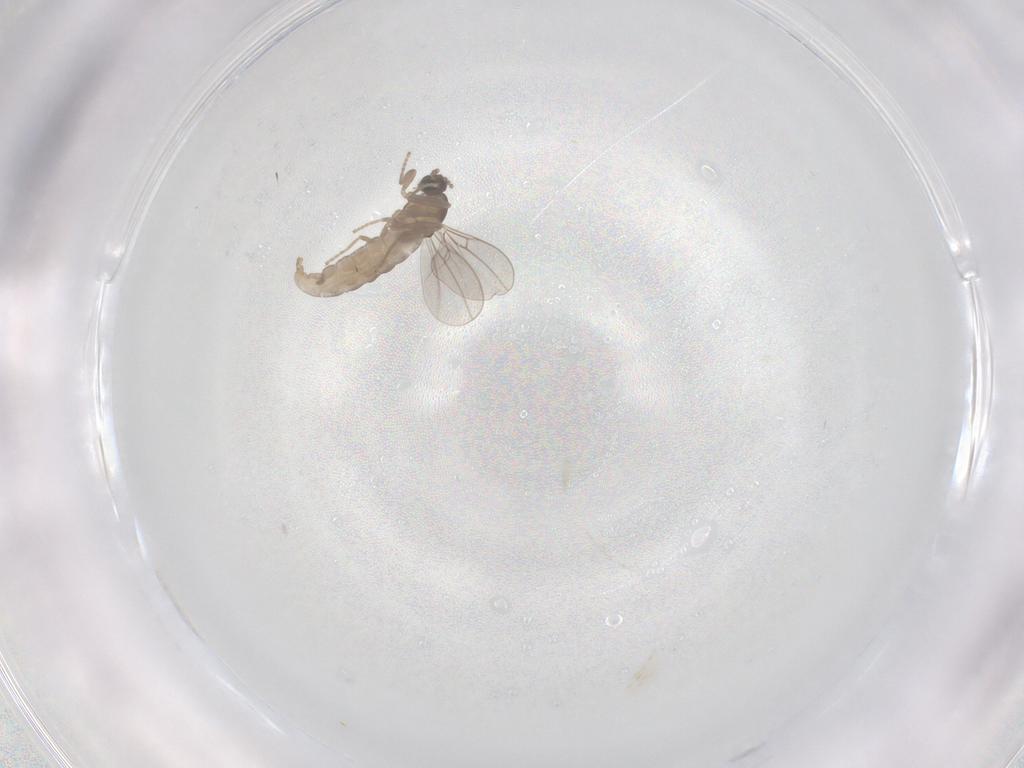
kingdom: Animalia
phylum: Arthropoda
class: Insecta
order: Diptera
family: Cecidomyiidae
